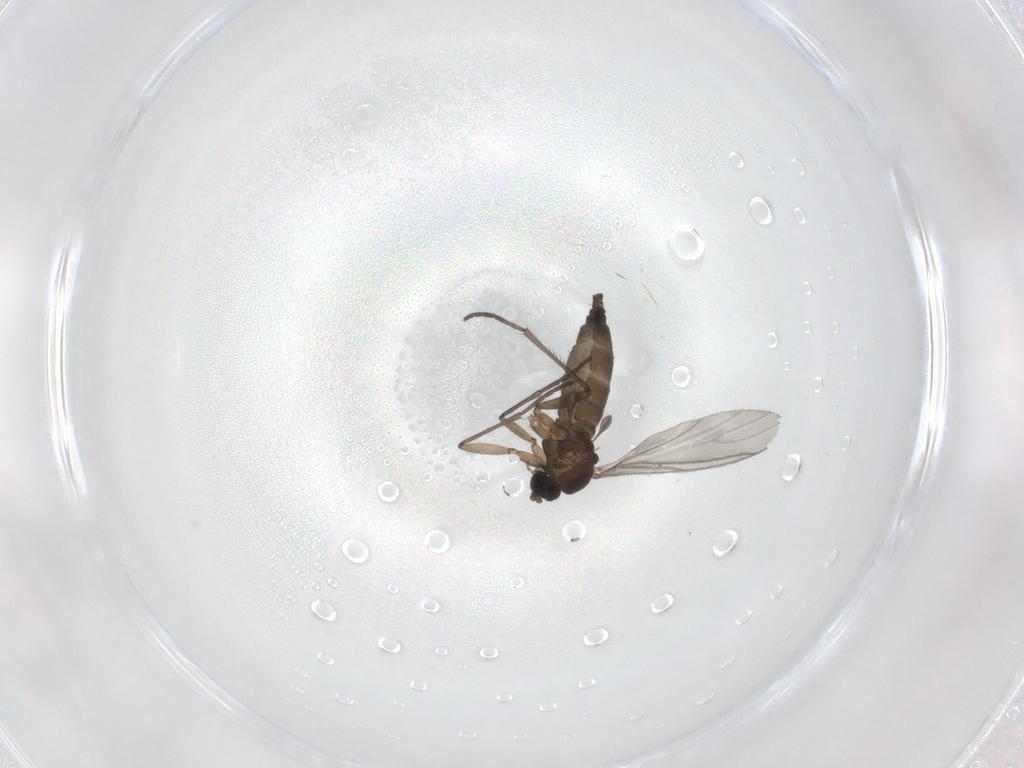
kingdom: Animalia
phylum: Arthropoda
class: Insecta
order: Diptera
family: Sciaridae
